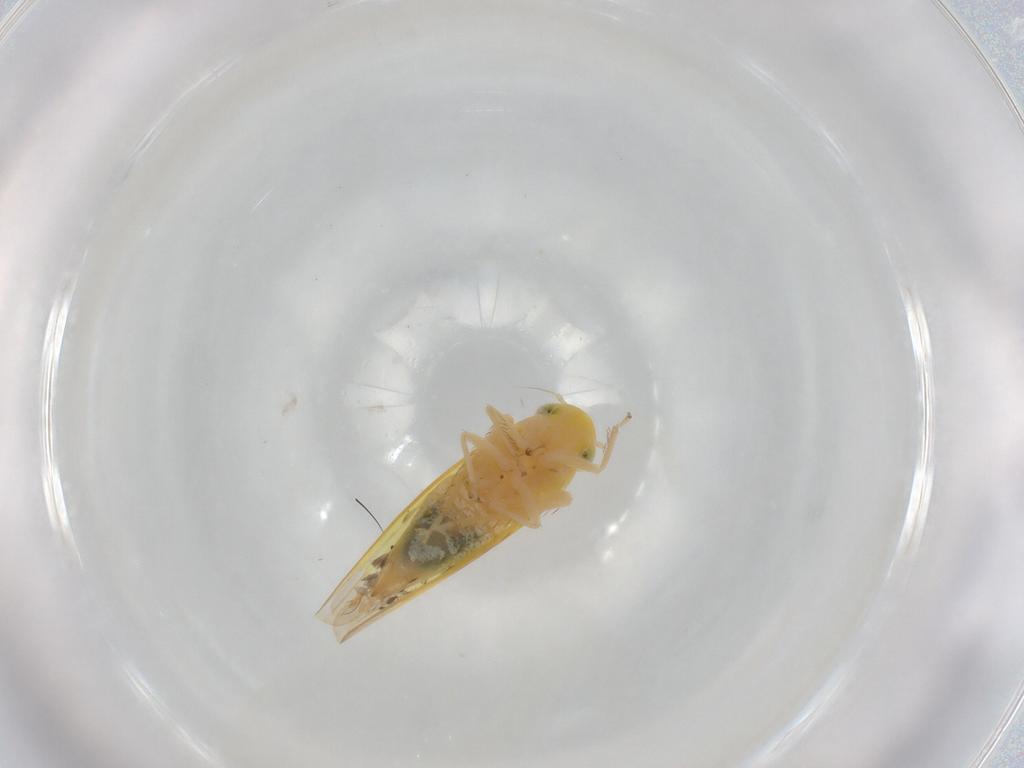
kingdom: Animalia
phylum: Arthropoda
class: Insecta
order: Hemiptera
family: Cicadellidae
